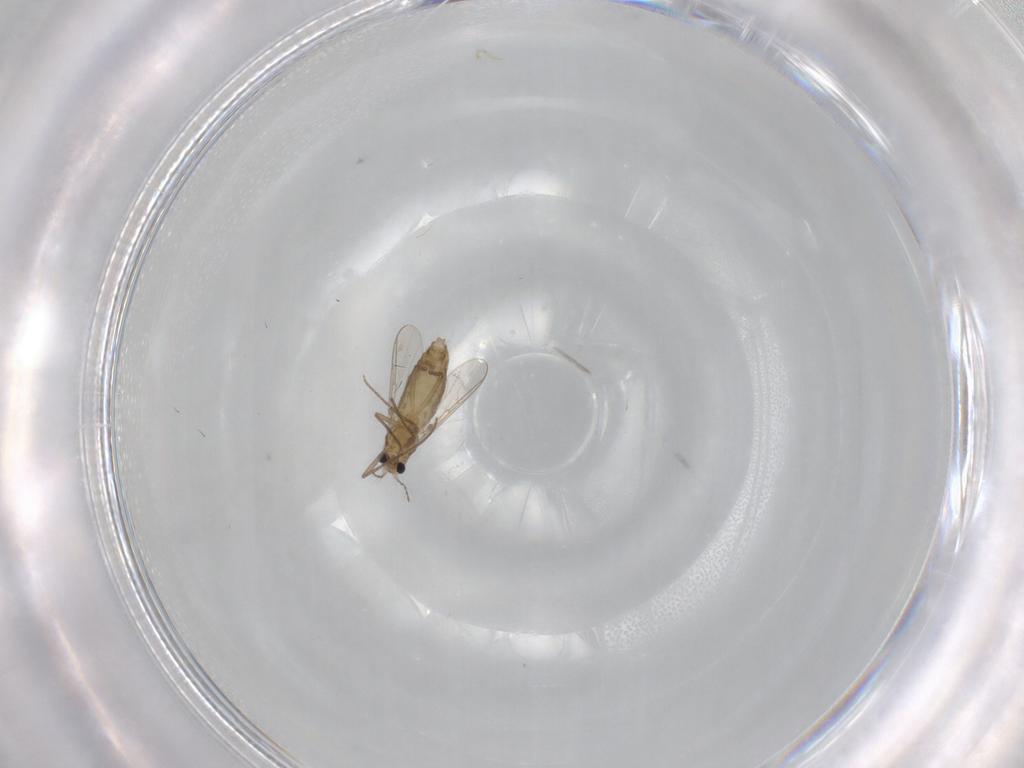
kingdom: Animalia
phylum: Arthropoda
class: Insecta
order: Diptera
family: Chironomidae
